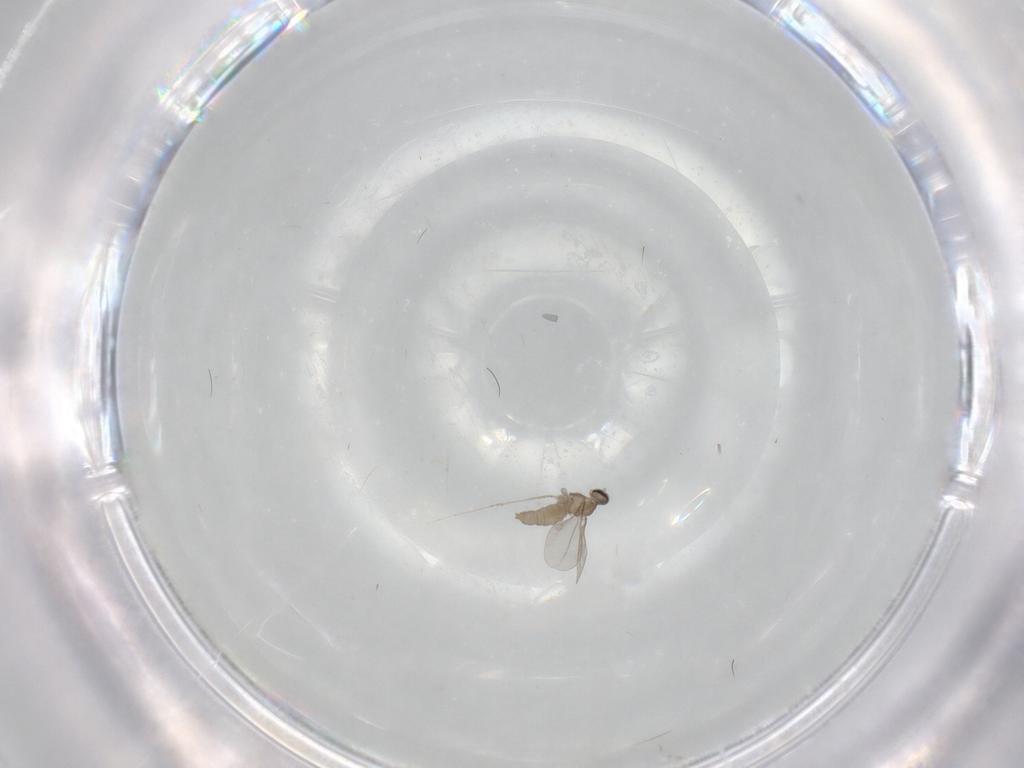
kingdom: Animalia
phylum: Arthropoda
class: Insecta
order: Diptera
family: Cecidomyiidae
